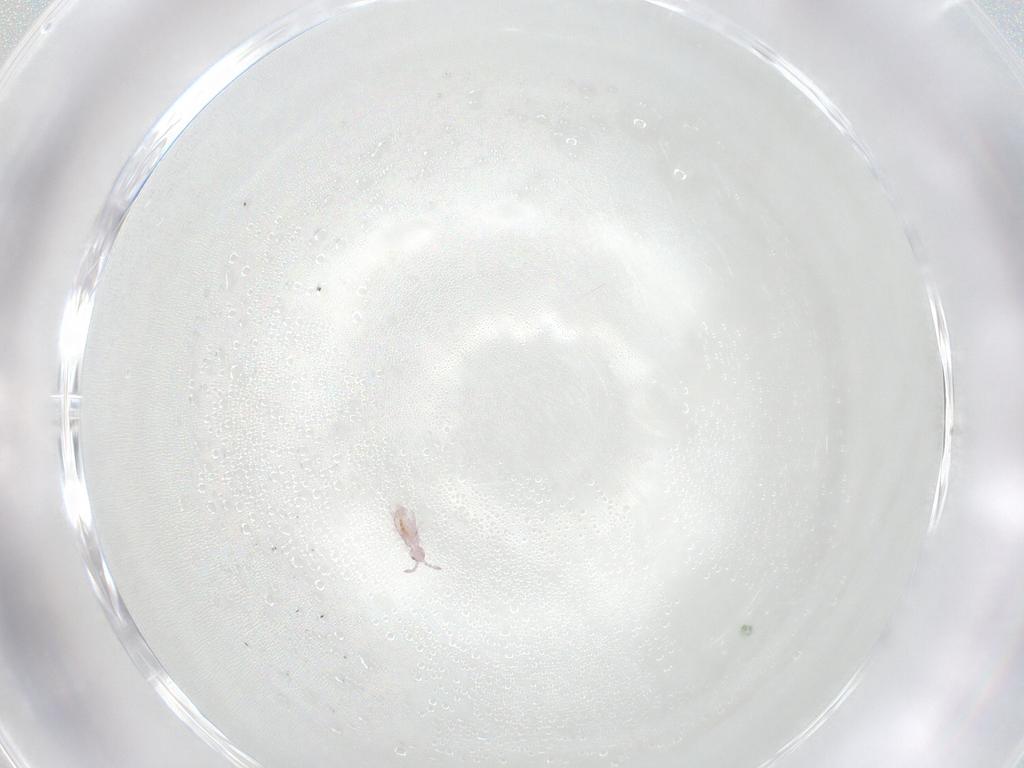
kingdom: Animalia
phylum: Arthropoda
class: Collembola
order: Entomobryomorpha
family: Entomobryidae
